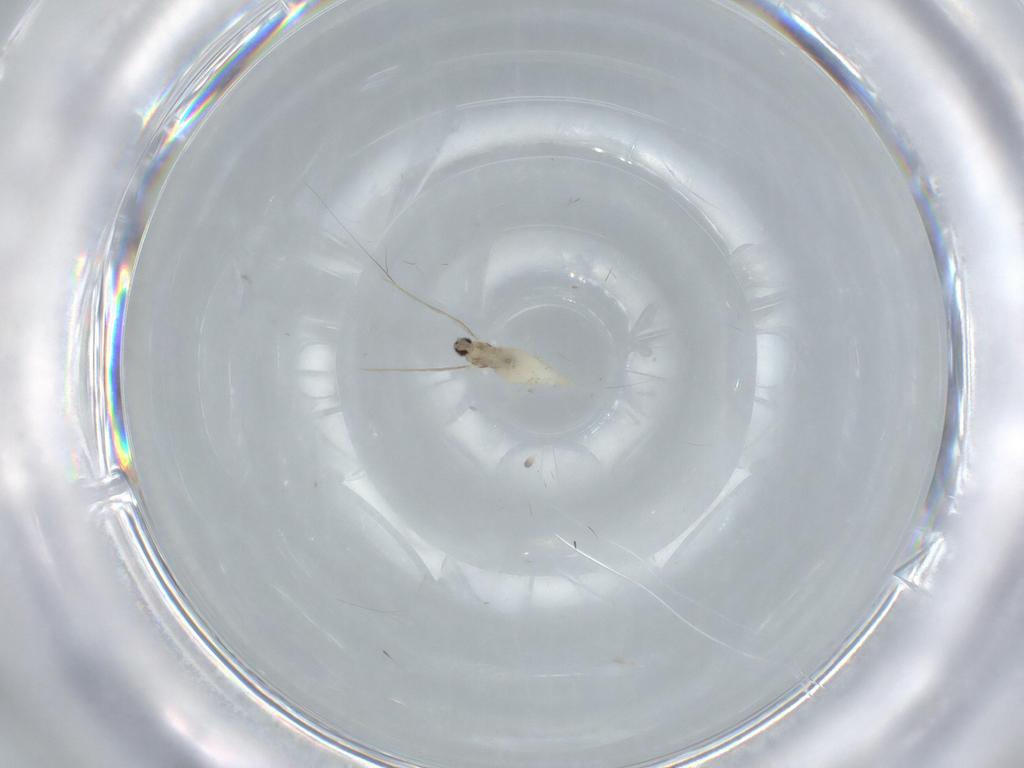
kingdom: Animalia
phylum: Arthropoda
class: Insecta
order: Diptera
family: Cecidomyiidae
